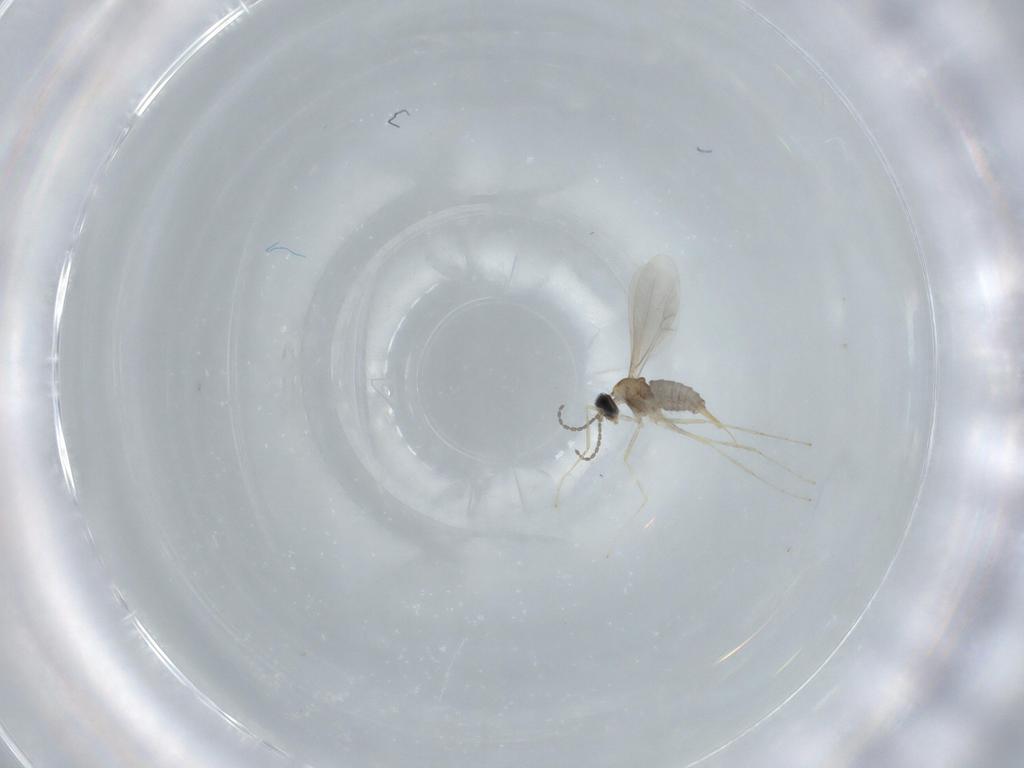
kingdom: Animalia
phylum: Arthropoda
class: Insecta
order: Diptera
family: Cecidomyiidae
